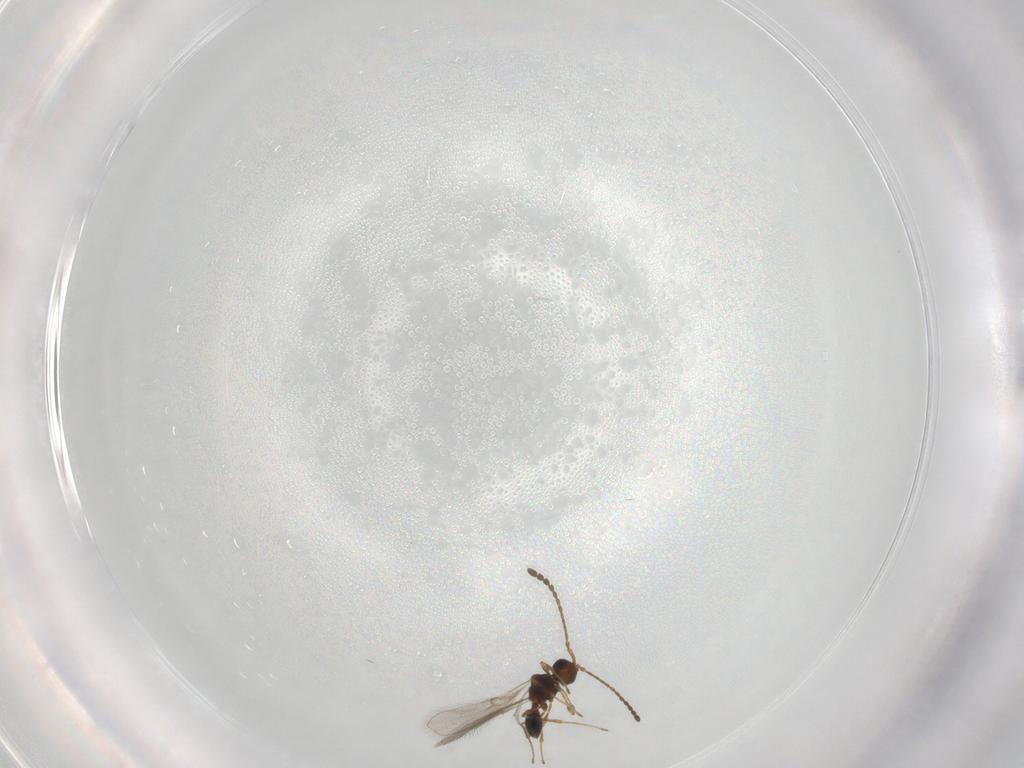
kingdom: Animalia
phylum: Arthropoda
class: Insecta
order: Hymenoptera
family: Diapriidae
